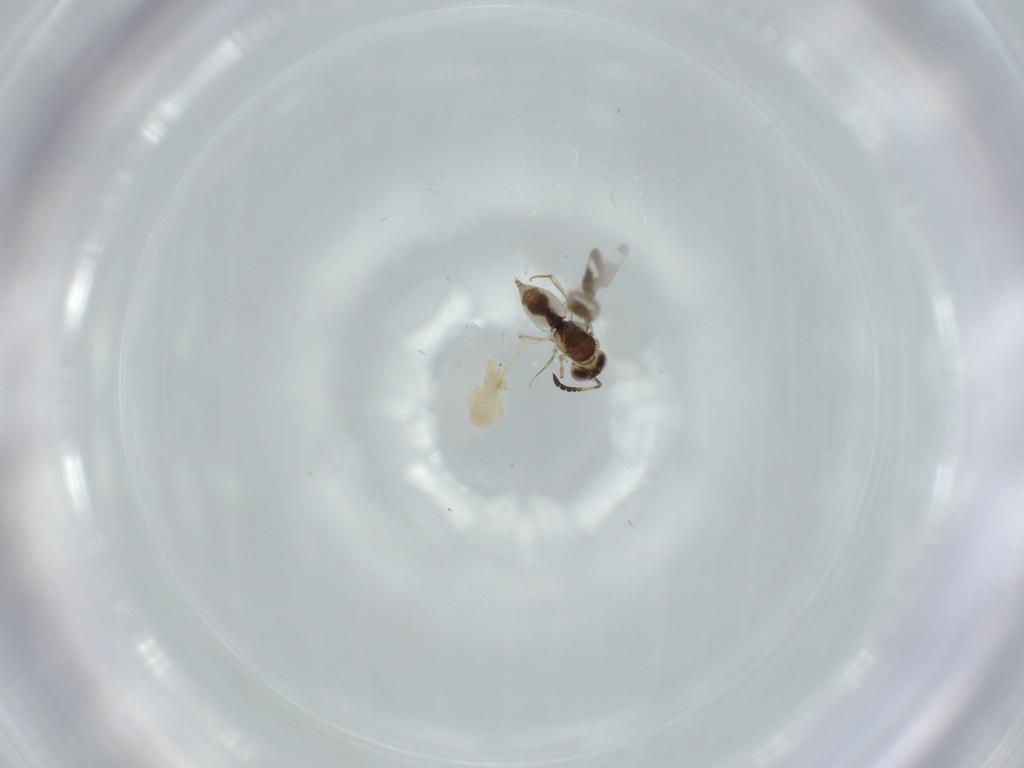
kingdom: Animalia
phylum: Arthropoda
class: Insecta
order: Hymenoptera
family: Ceraphronidae
